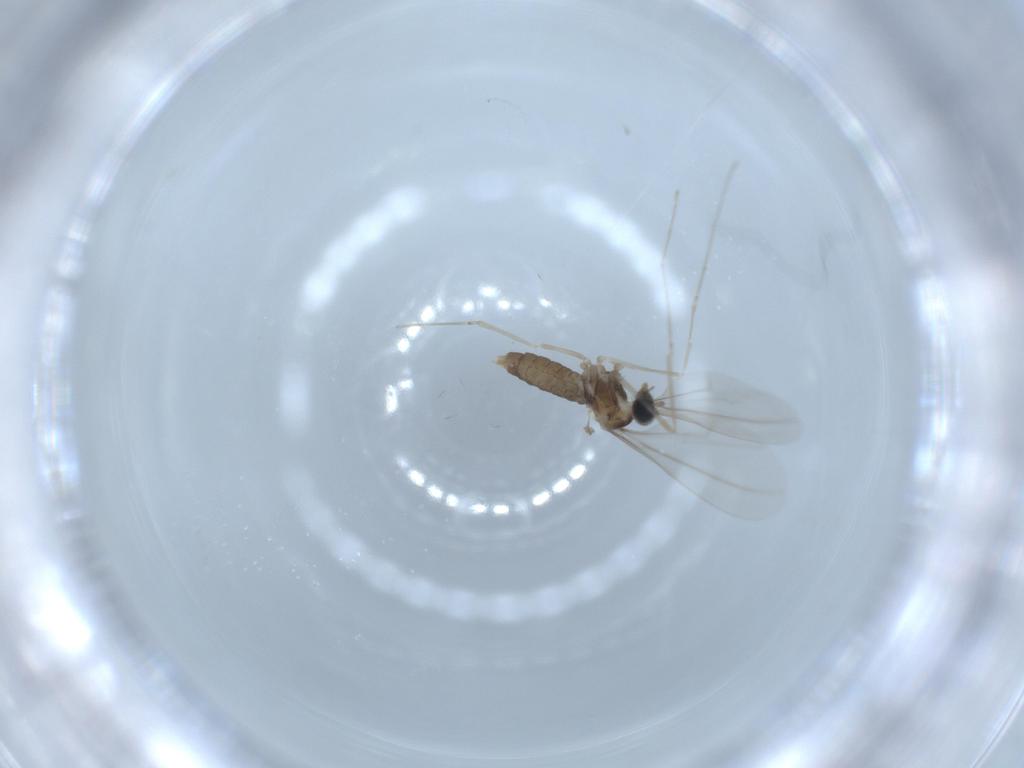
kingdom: Animalia
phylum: Arthropoda
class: Insecta
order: Diptera
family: Cecidomyiidae
